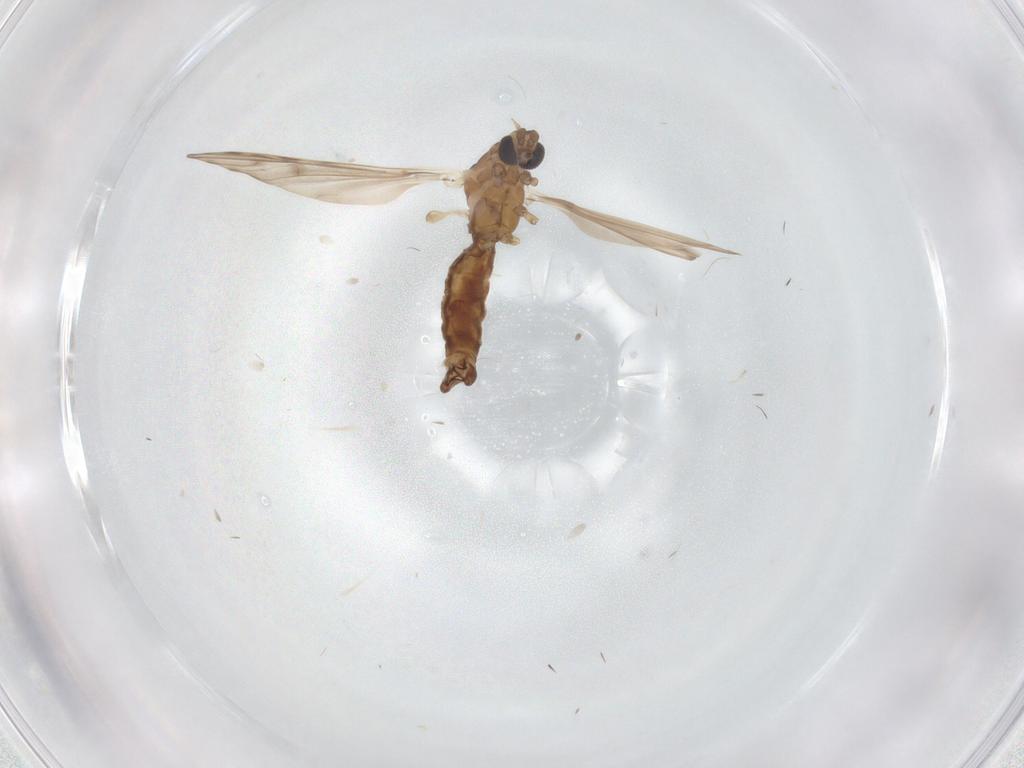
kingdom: Animalia
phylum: Arthropoda
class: Insecta
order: Diptera
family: Limoniidae
